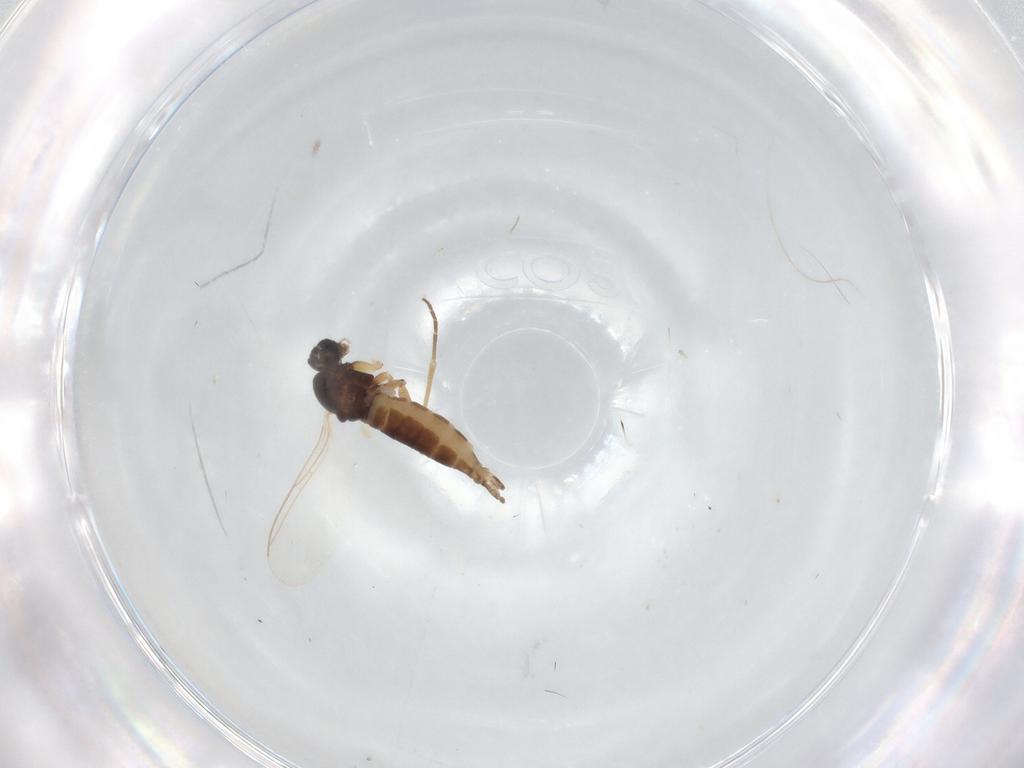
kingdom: Animalia
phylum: Arthropoda
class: Insecta
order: Diptera
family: Sciaridae
